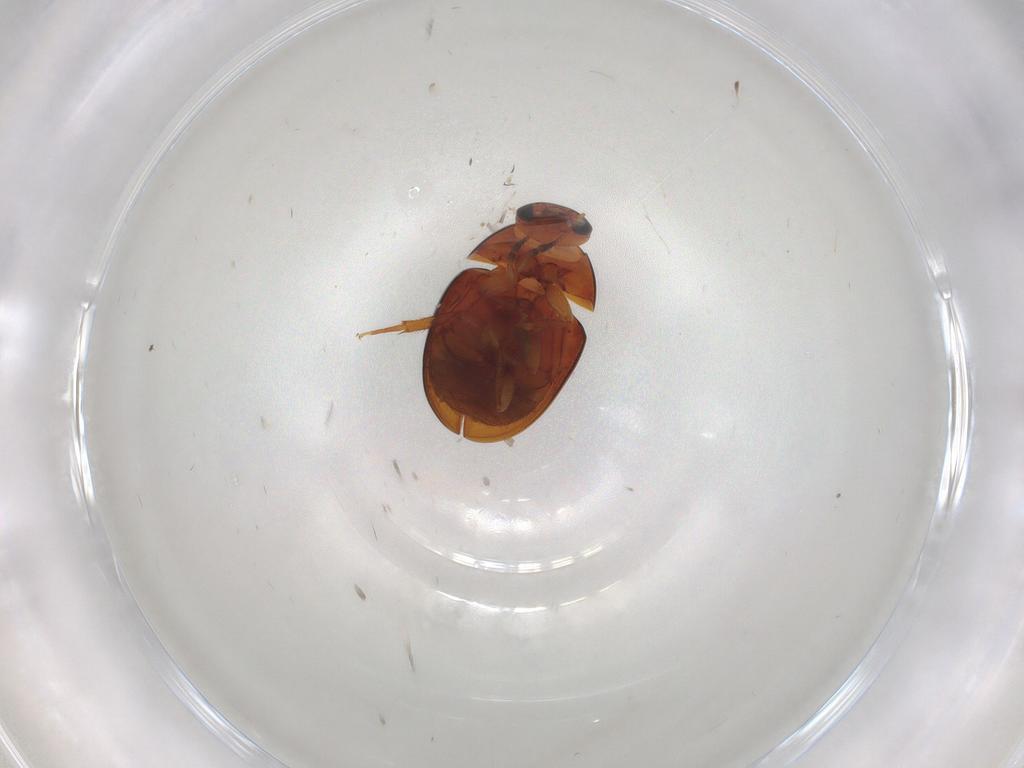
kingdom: Animalia
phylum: Arthropoda
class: Insecta
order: Coleoptera
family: Phalacridae
